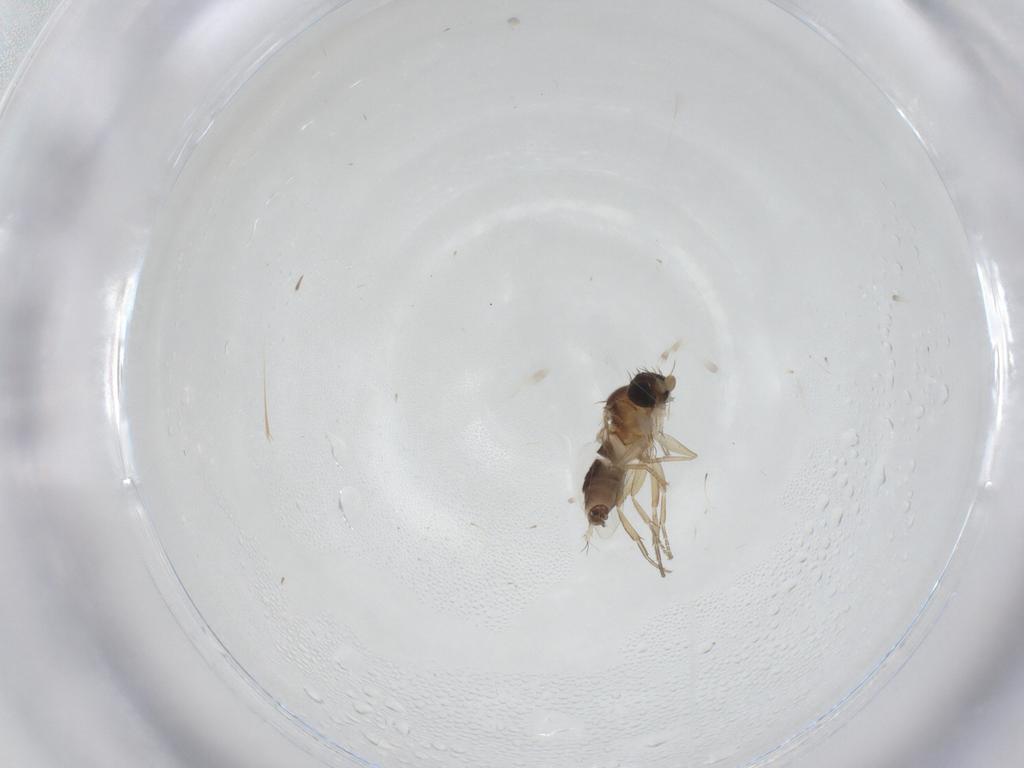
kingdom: Animalia
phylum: Arthropoda
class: Insecta
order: Diptera
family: Phoridae
